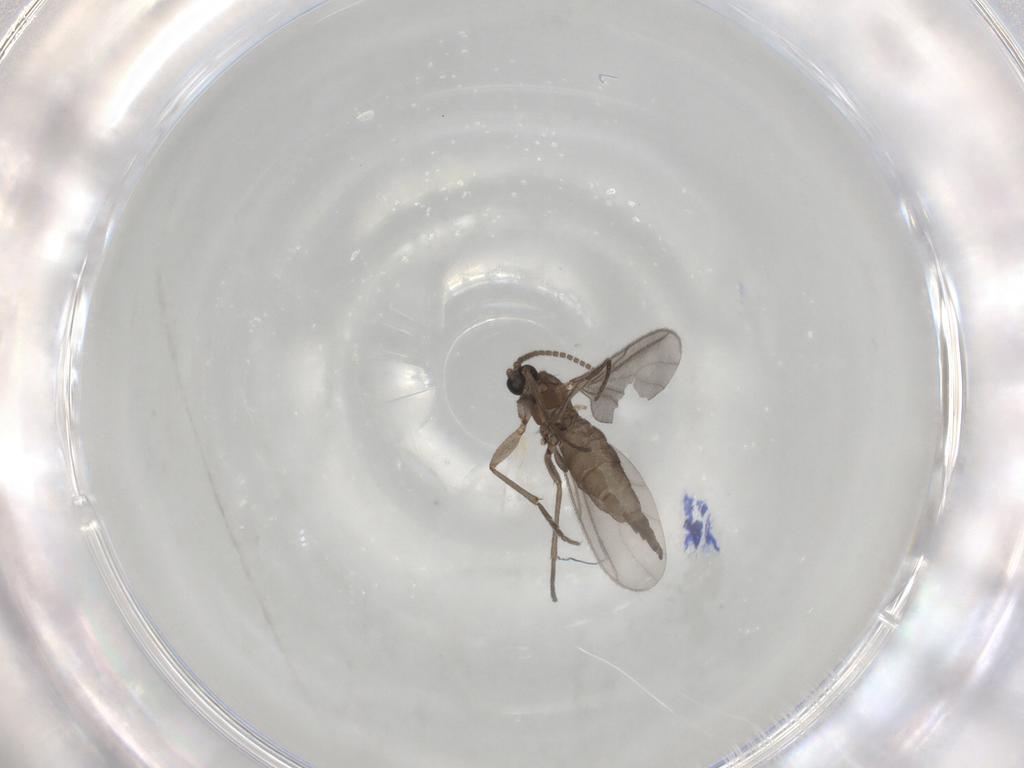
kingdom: Animalia
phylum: Arthropoda
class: Insecta
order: Diptera
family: Sciaridae
